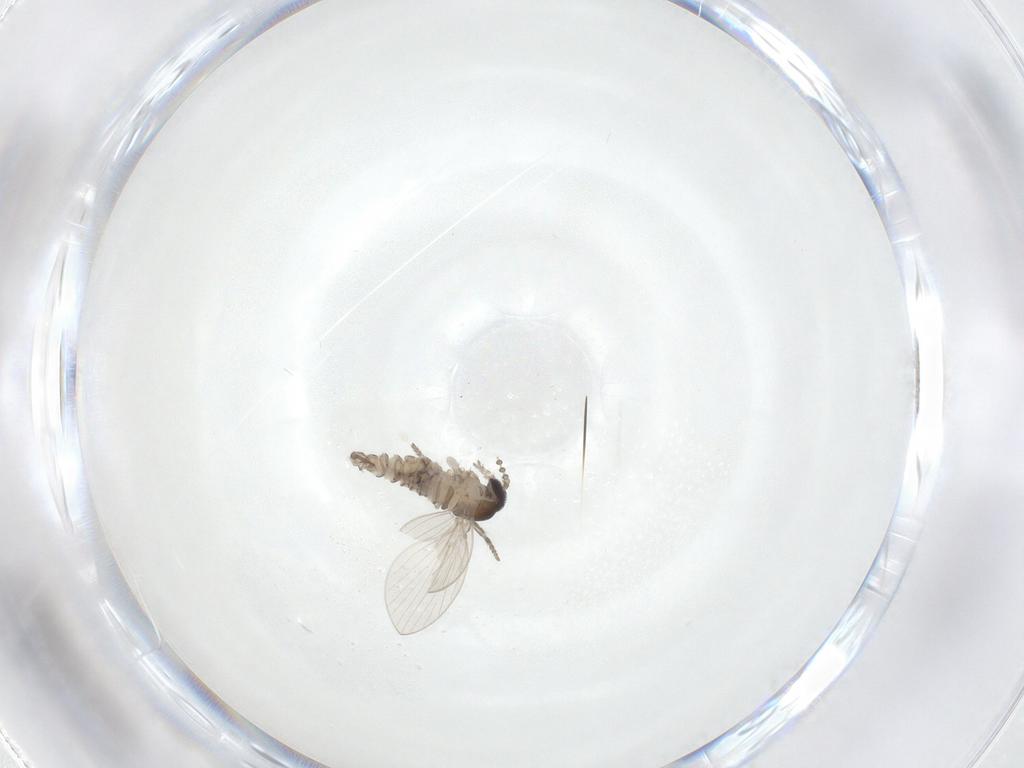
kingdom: Animalia
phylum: Arthropoda
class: Insecta
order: Diptera
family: Psychodidae
